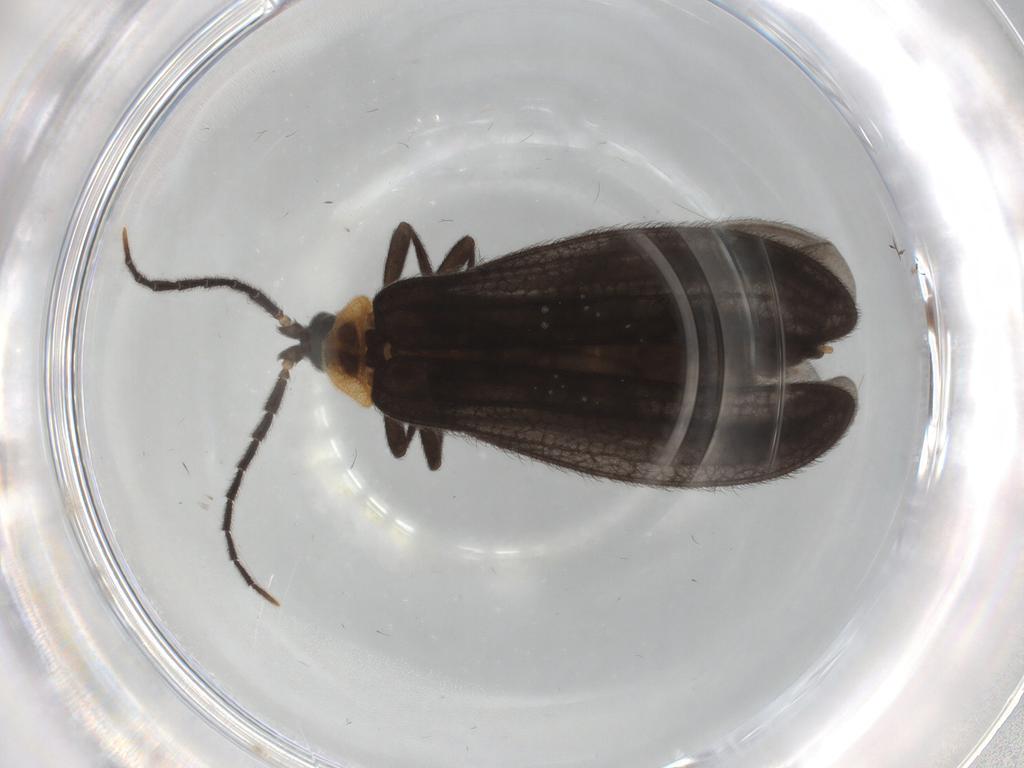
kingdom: Animalia
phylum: Arthropoda
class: Insecta
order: Coleoptera
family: Lycidae
